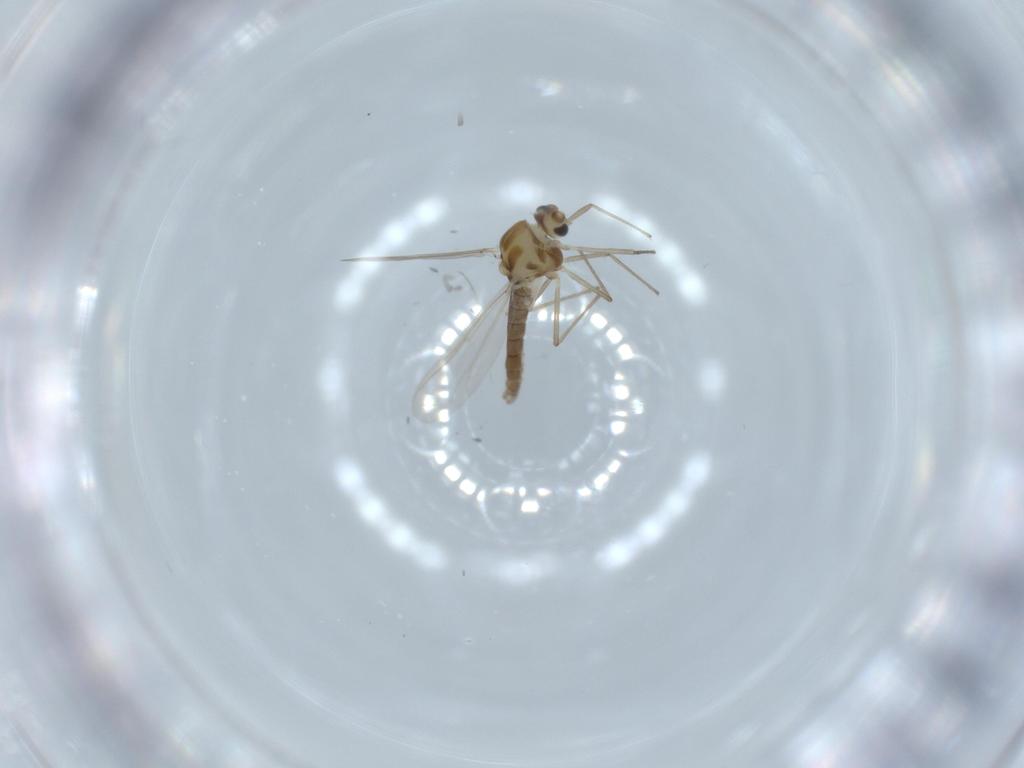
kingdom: Animalia
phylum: Arthropoda
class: Insecta
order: Diptera
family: Chironomidae
